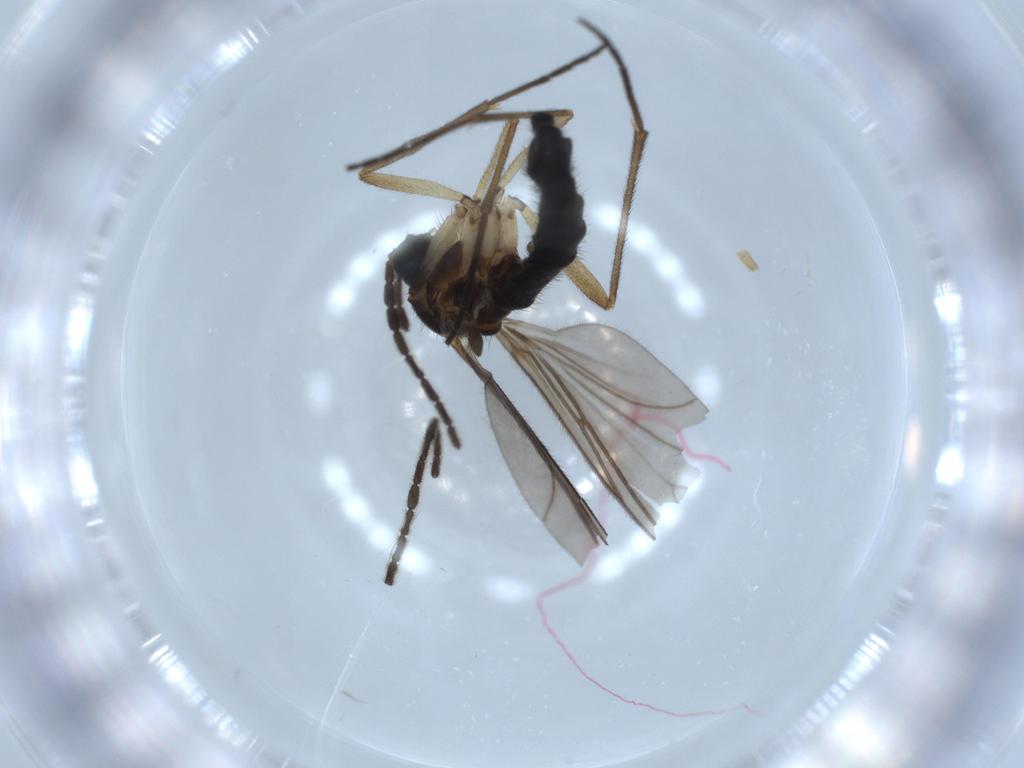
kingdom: Animalia
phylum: Arthropoda
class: Insecta
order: Diptera
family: Sciaridae
